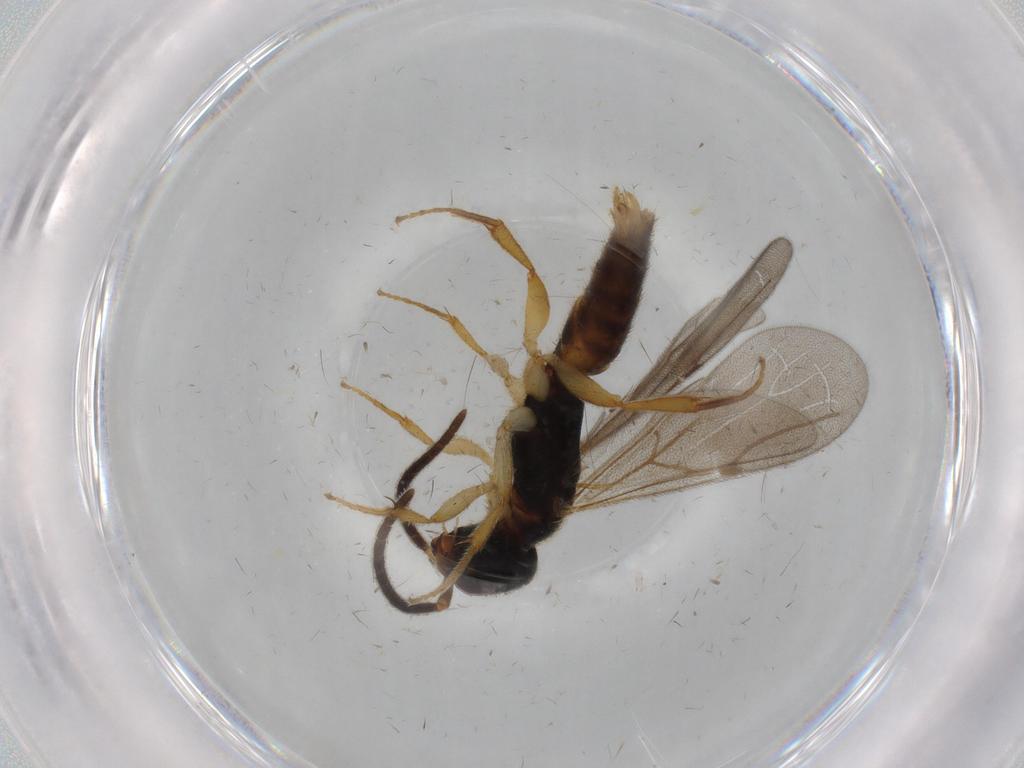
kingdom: Animalia
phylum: Arthropoda
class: Insecta
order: Hymenoptera
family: Bethylidae
